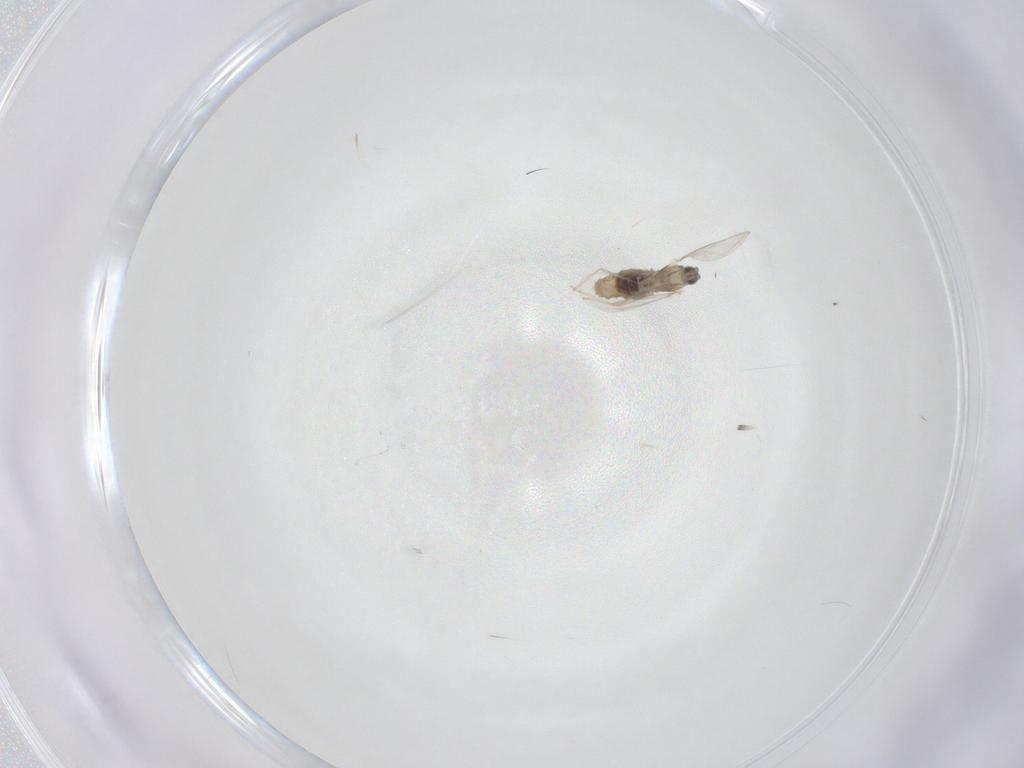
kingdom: Animalia
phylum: Arthropoda
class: Insecta
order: Diptera
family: Cecidomyiidae
